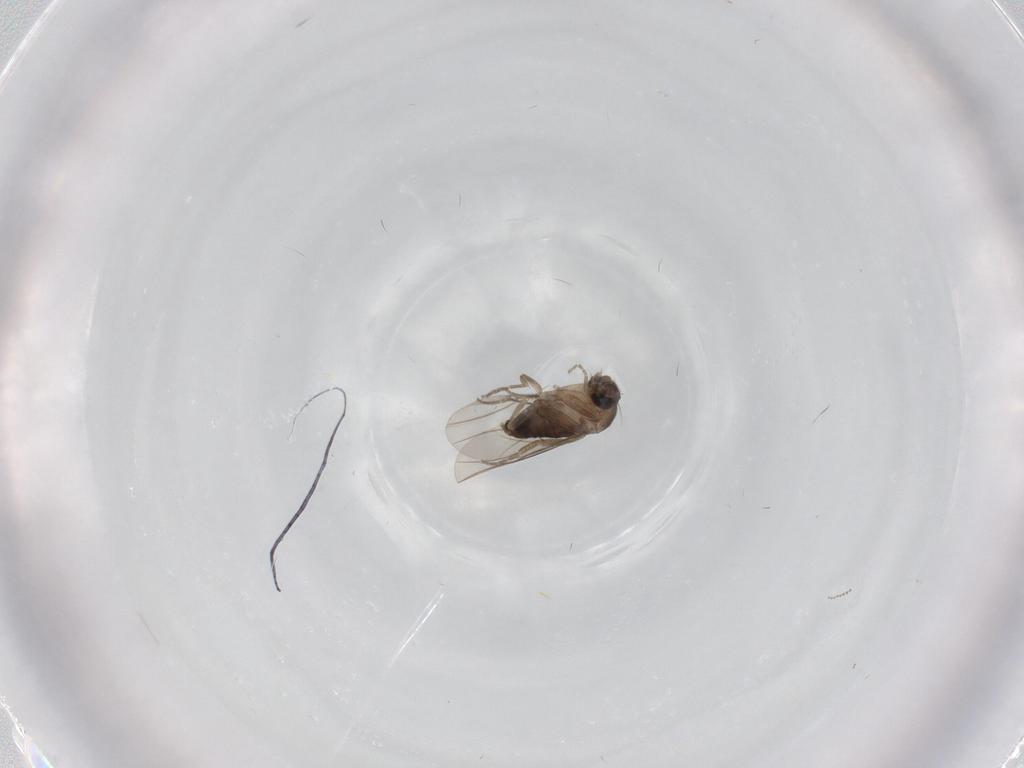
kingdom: Animalia
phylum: Arthropoda
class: Insecta
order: Diptera
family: Phoridae
